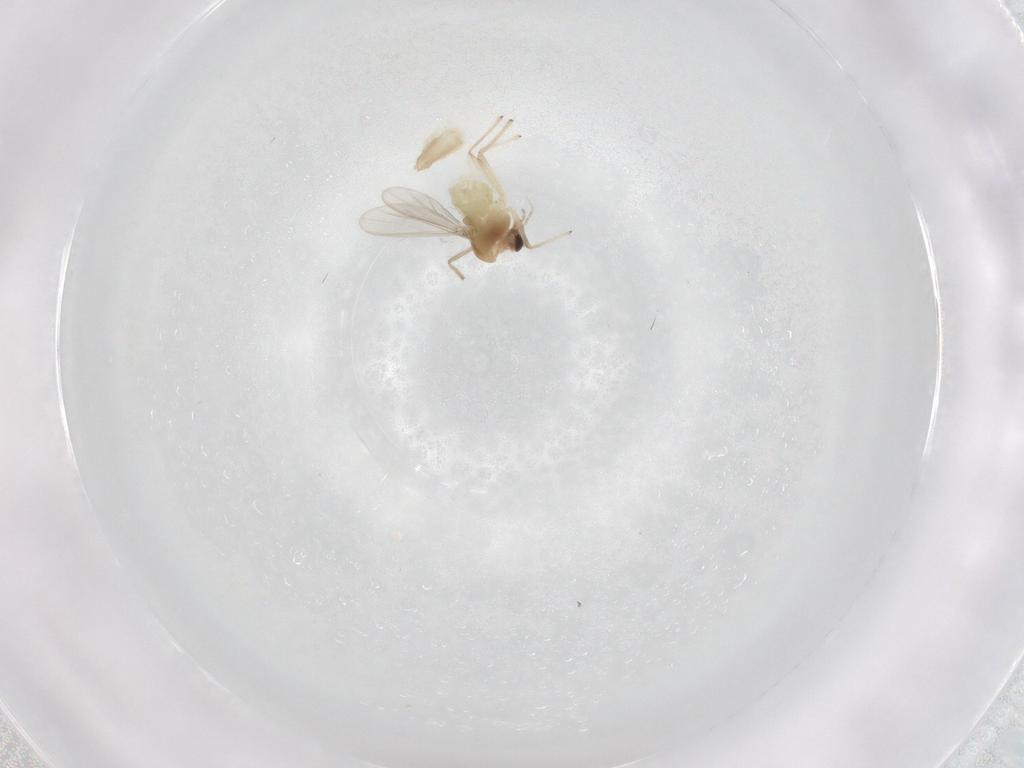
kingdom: Animalia
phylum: Arthropoda
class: Insecta
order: Diptera
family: Chironomidae
